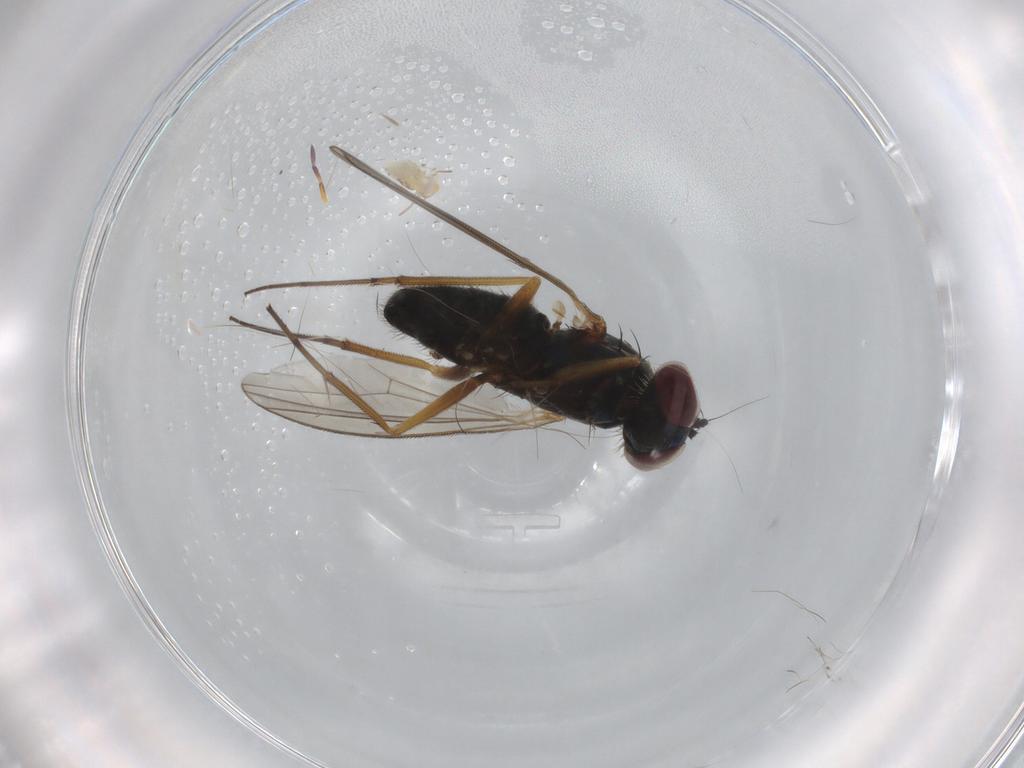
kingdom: Animalia
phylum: Arthropoda
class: Insecta
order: Diptera
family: Dolichopodidae
